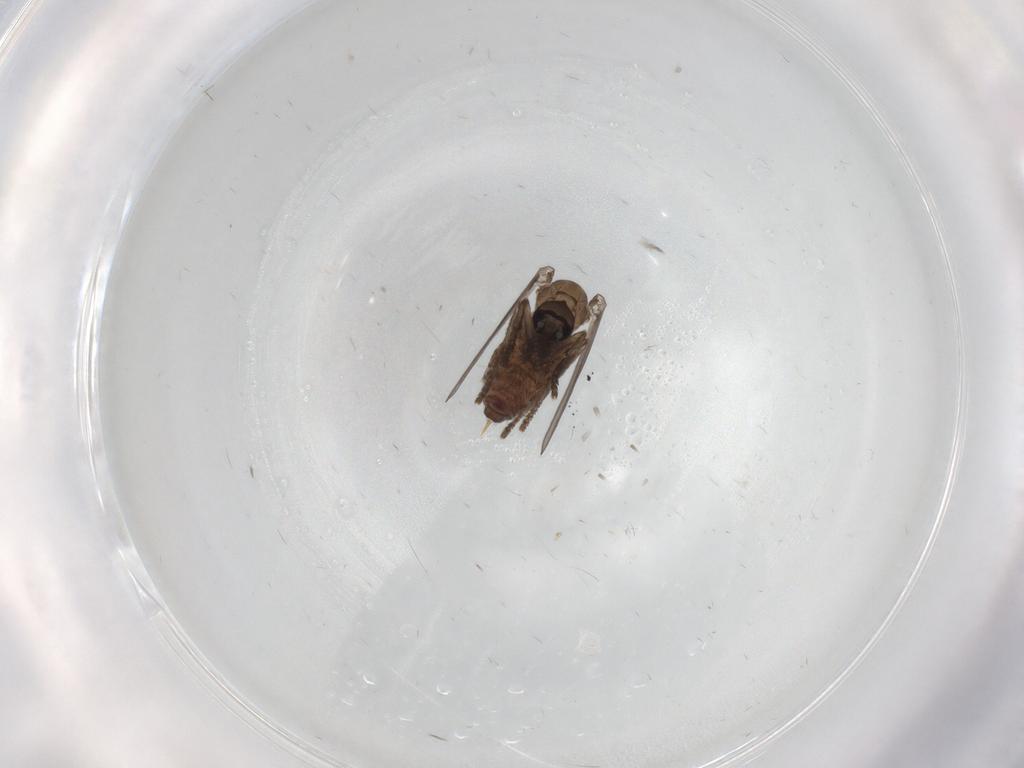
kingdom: Animalia
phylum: Arthropoda
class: Insecta
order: Diptera
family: Psychodidae
